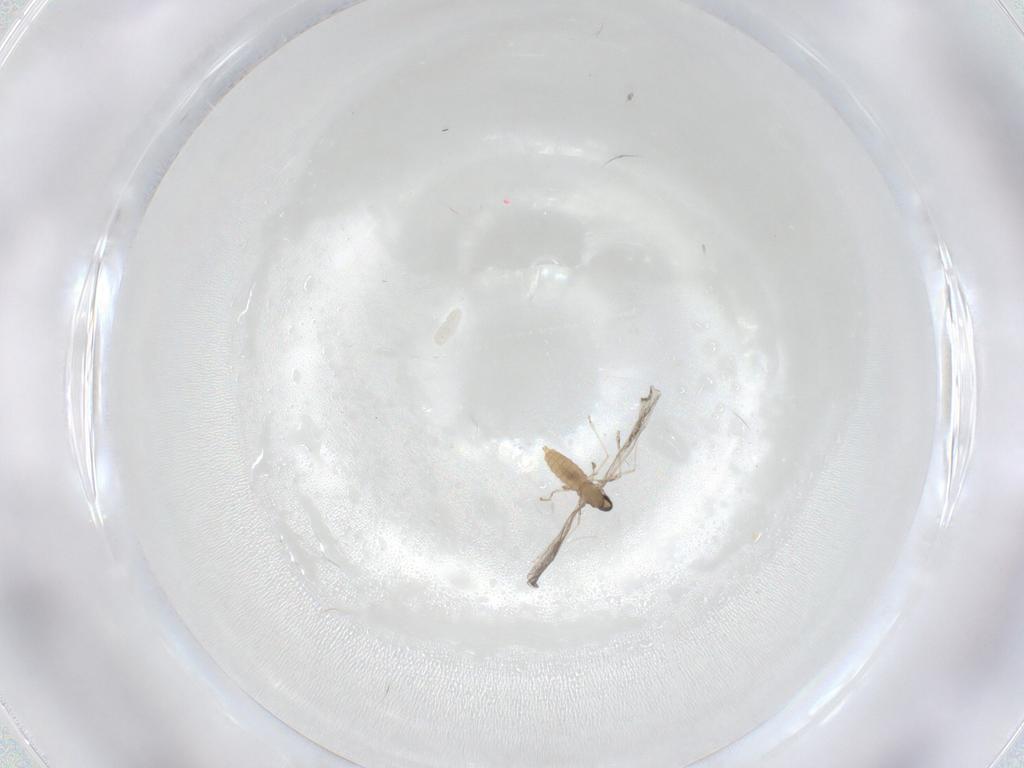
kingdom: Animalia
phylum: Arthropoda
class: Insecta
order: Diptera
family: Cecidomyiidae
